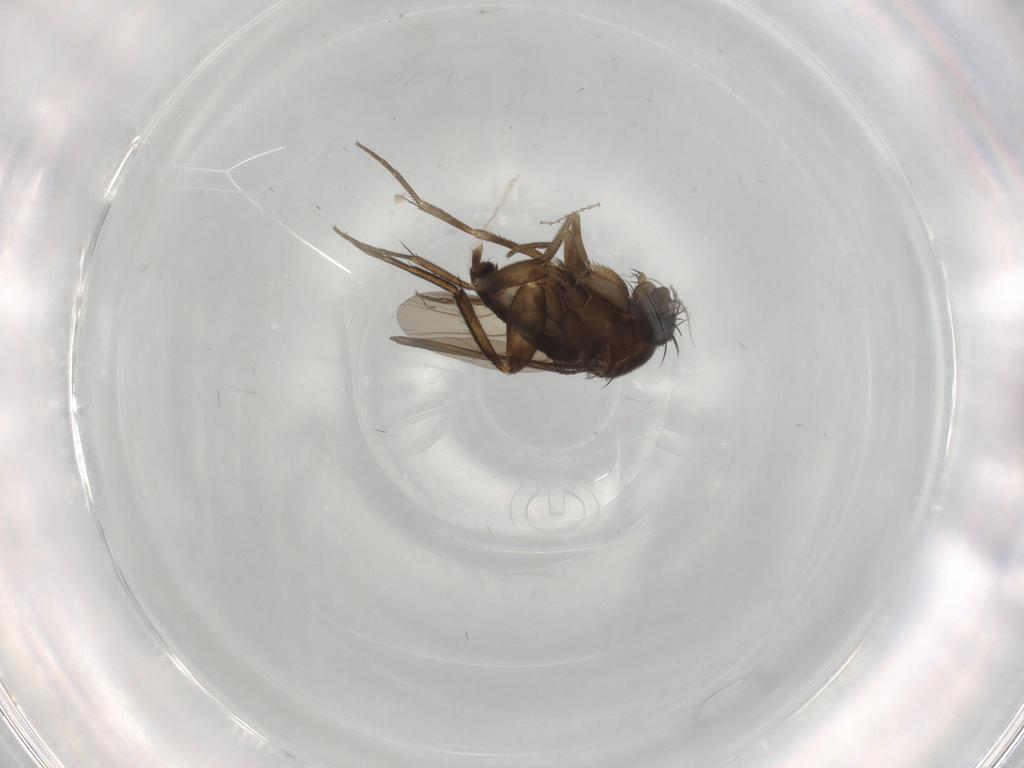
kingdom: Animalia
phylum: Arthropoda
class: Insecta
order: Diptera
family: Phoridae
